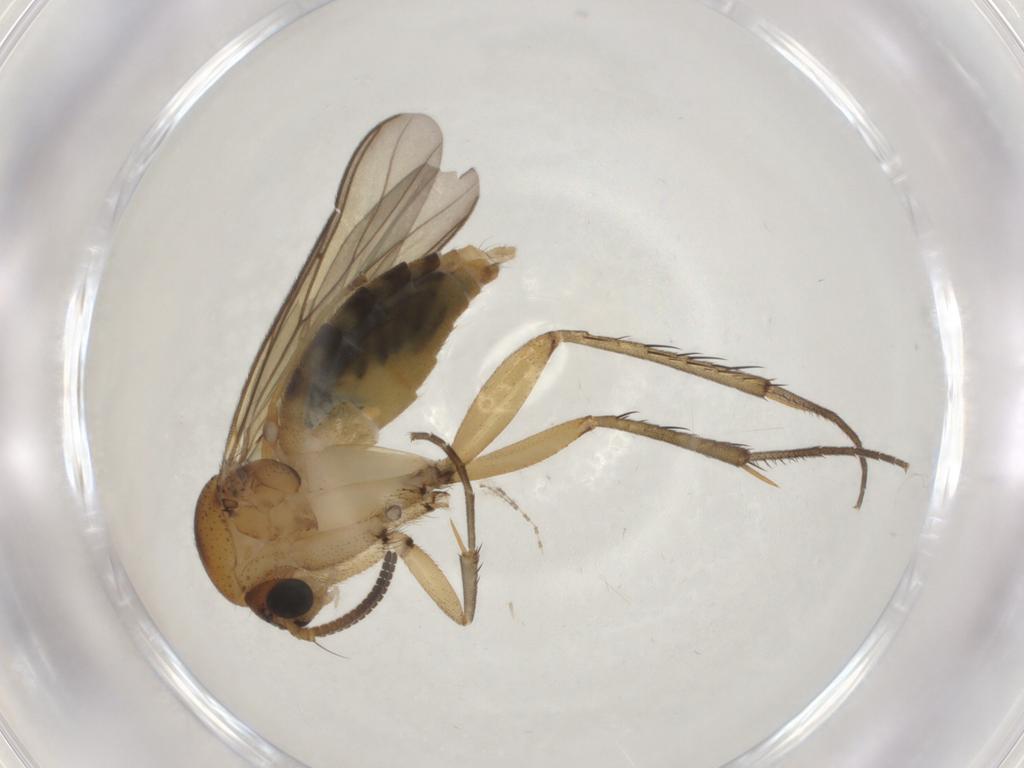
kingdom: Animalia
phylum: Arthropoda
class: Insecta
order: Diptera
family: Mycetophilidae
